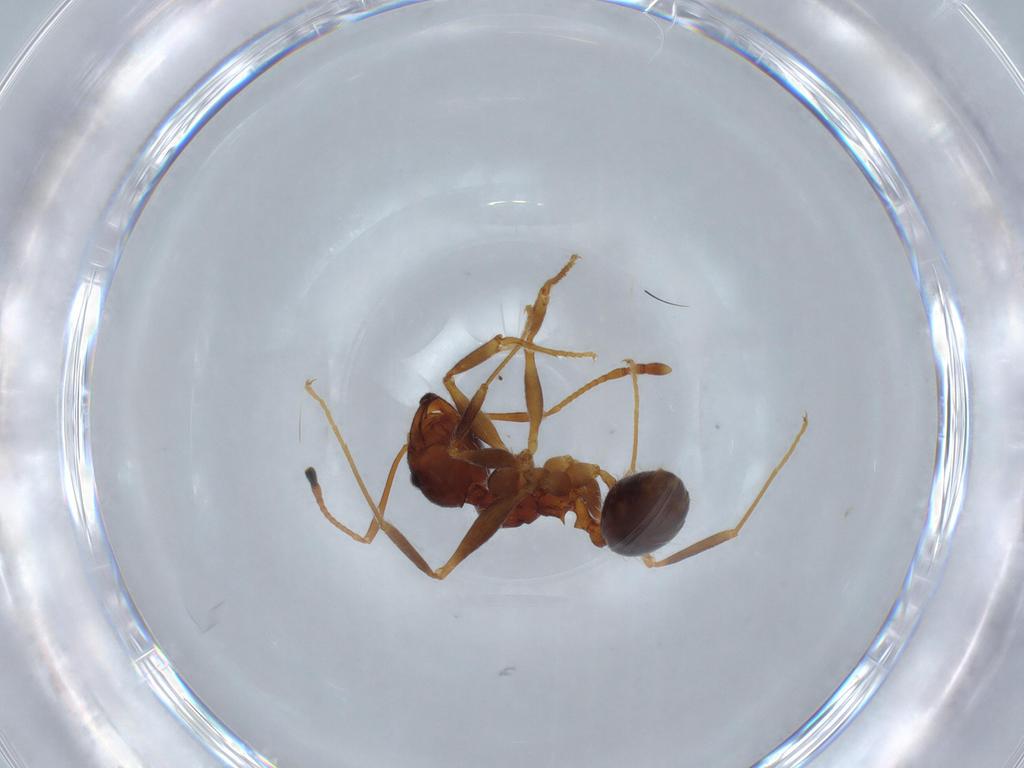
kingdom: Animalia
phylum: Arthropoda
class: Insecta
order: Hymenoptera
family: Formicidae
